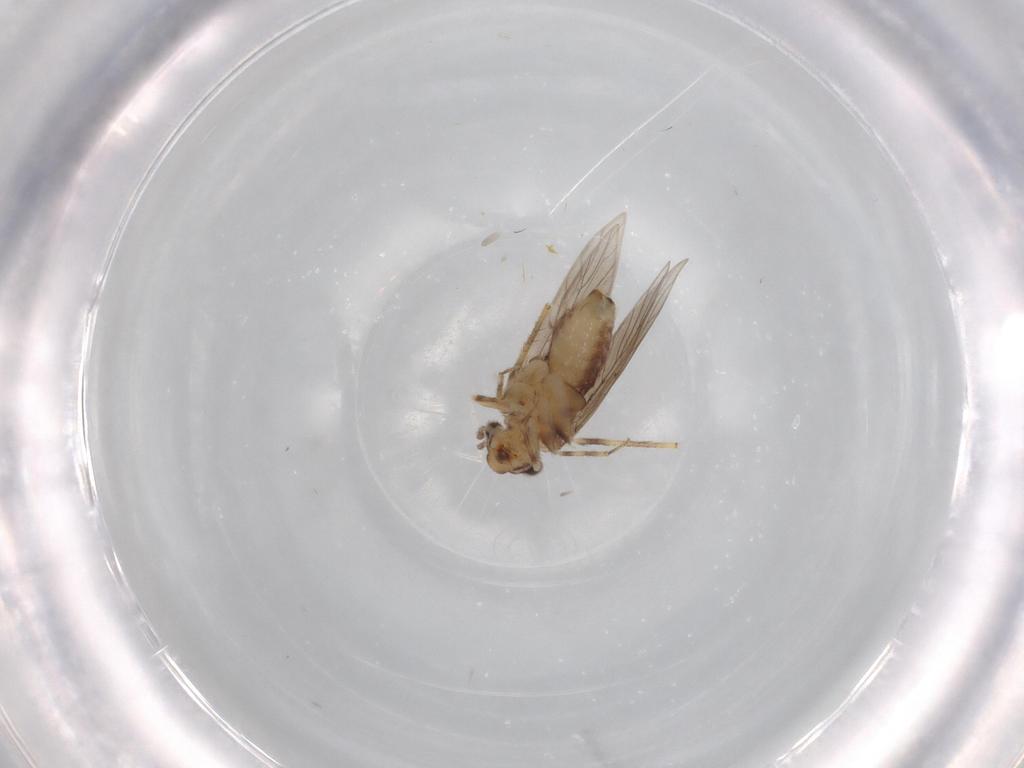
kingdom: Animalia
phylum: Arthropoda
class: Insecta
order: Psocodea
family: Lepidopsocidae
